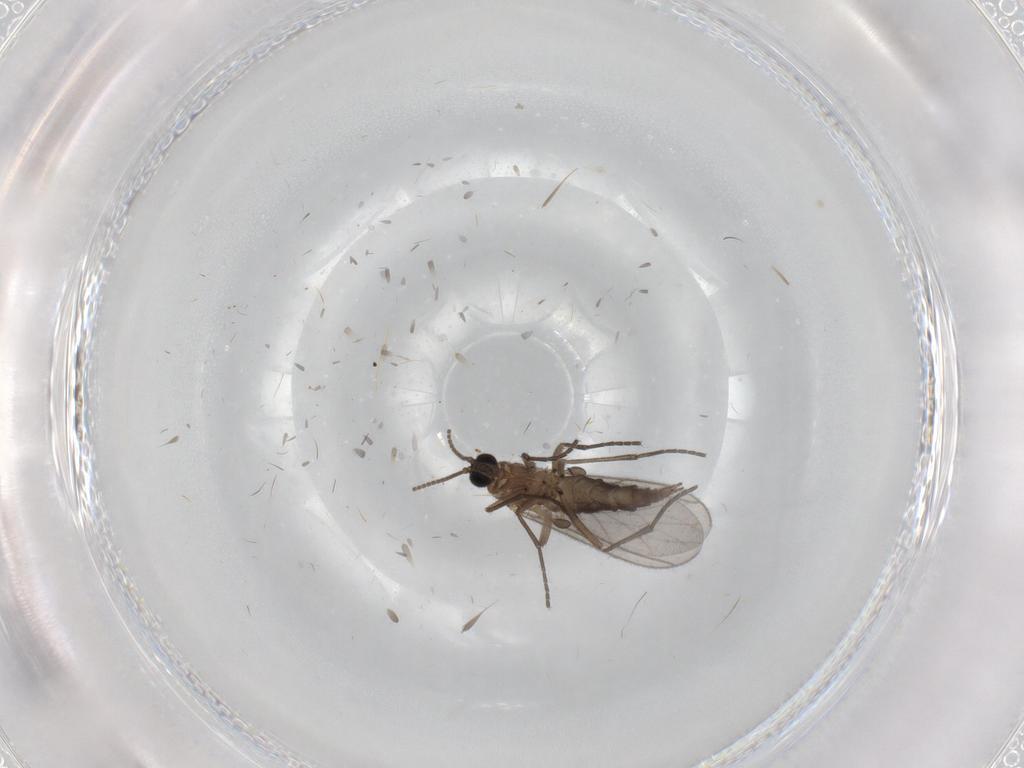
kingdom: Animalia
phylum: Arthropoda
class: Insecta
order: Diptera
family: Sciaridae
